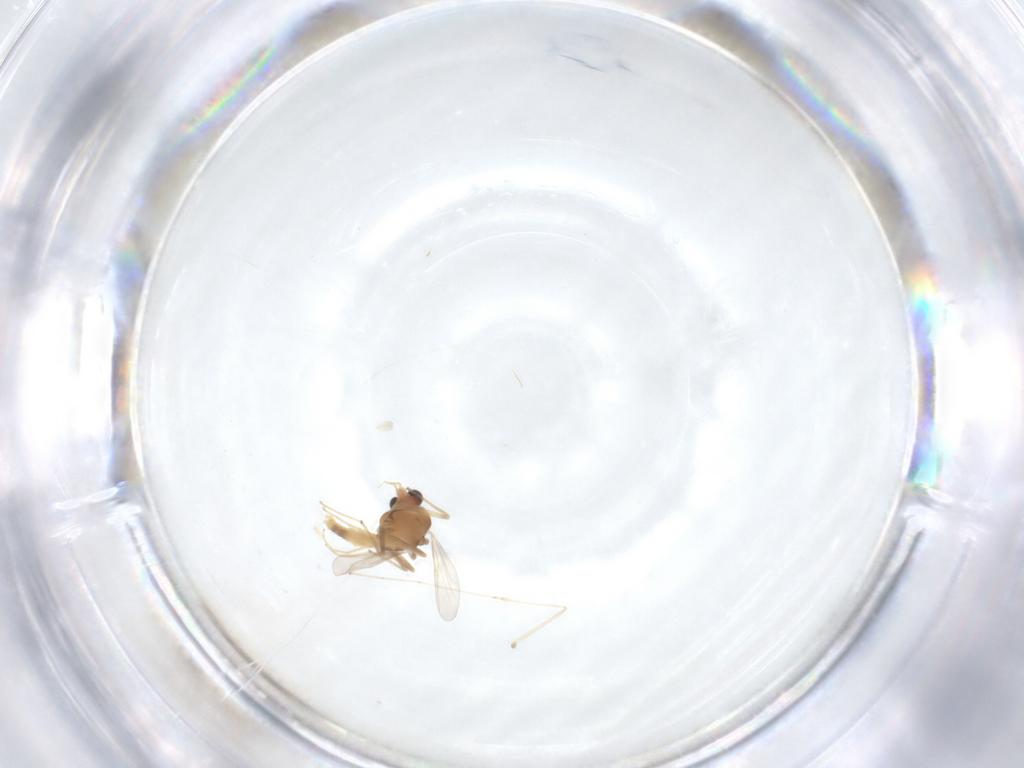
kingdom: Animalia
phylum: Arthropoda
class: Insecta
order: Diptera
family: Chironomidae
